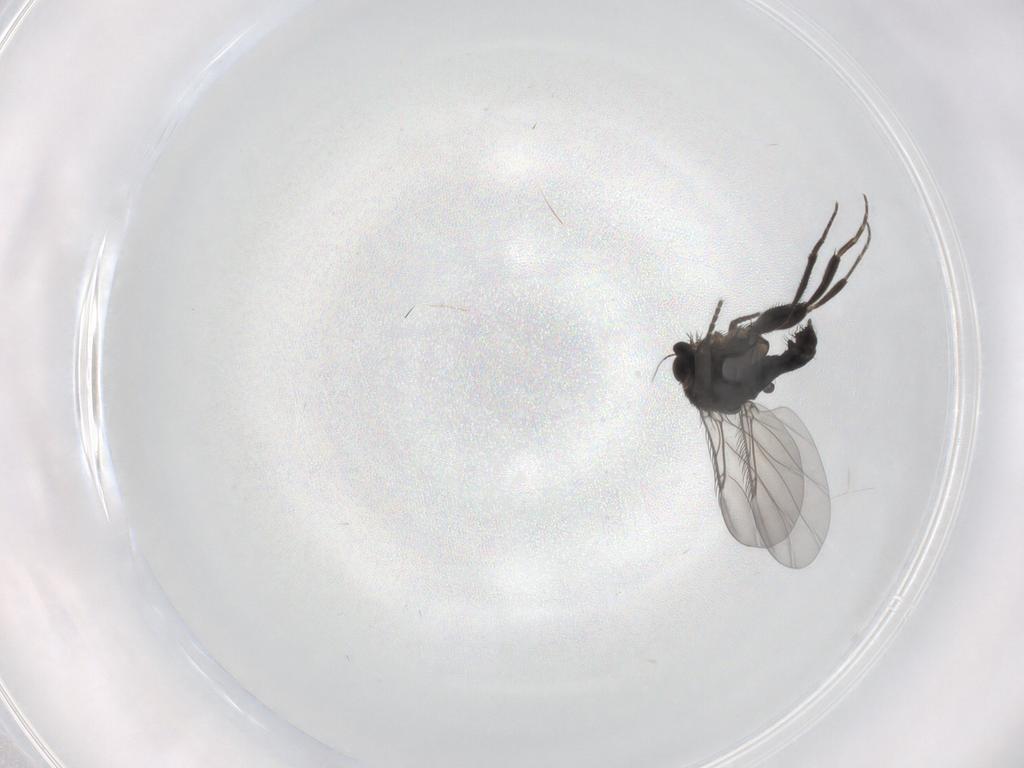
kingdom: Animalia
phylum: Arthropoda
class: Insecta
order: Diptera
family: Phoridae
